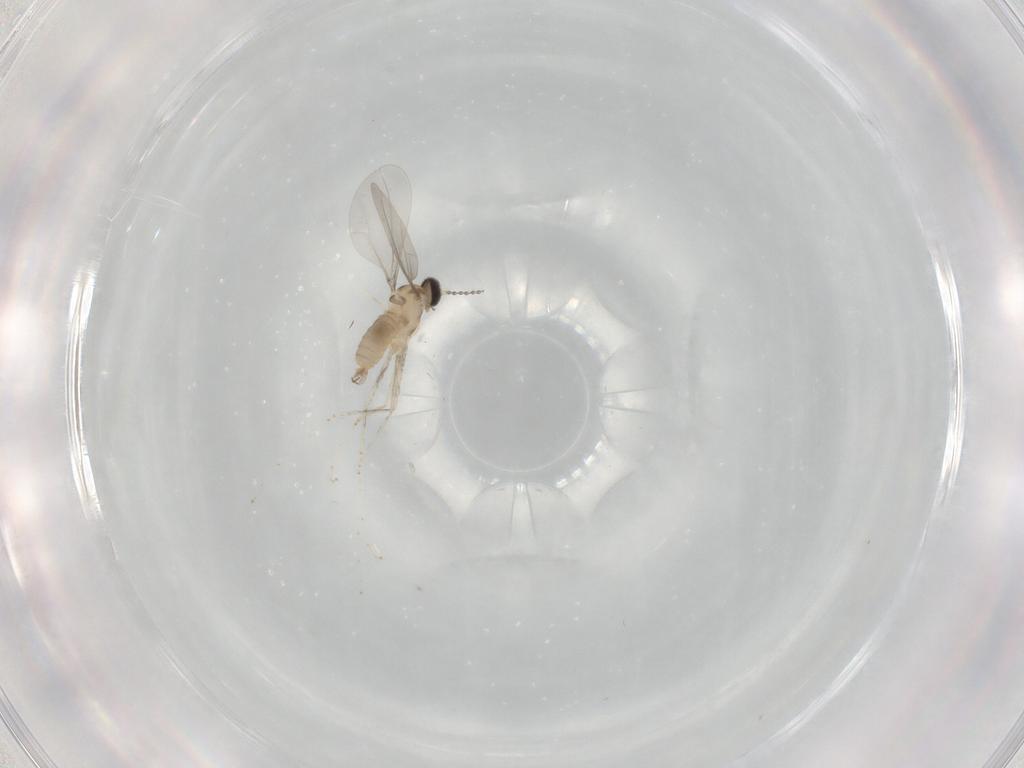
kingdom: Animalia
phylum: Arthropoda
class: Insecta
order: Diptera
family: Cecidomyiidae
